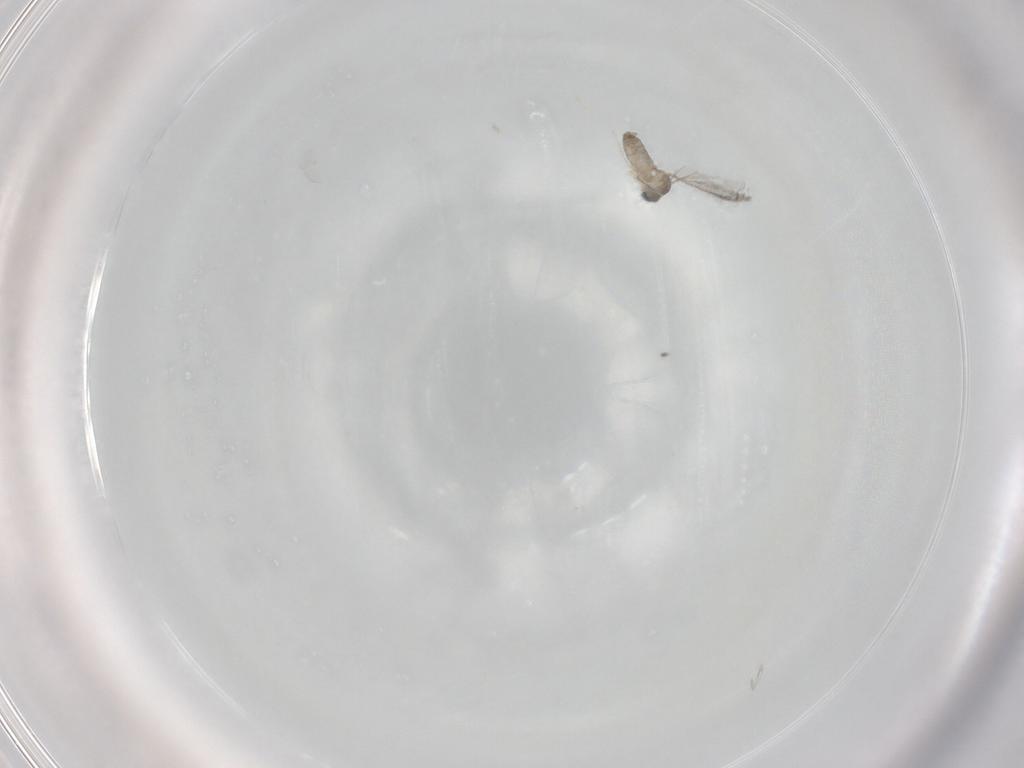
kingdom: Animalia
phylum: Arthropoda
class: Insecta
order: Diptera
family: Cecidomyiidae
